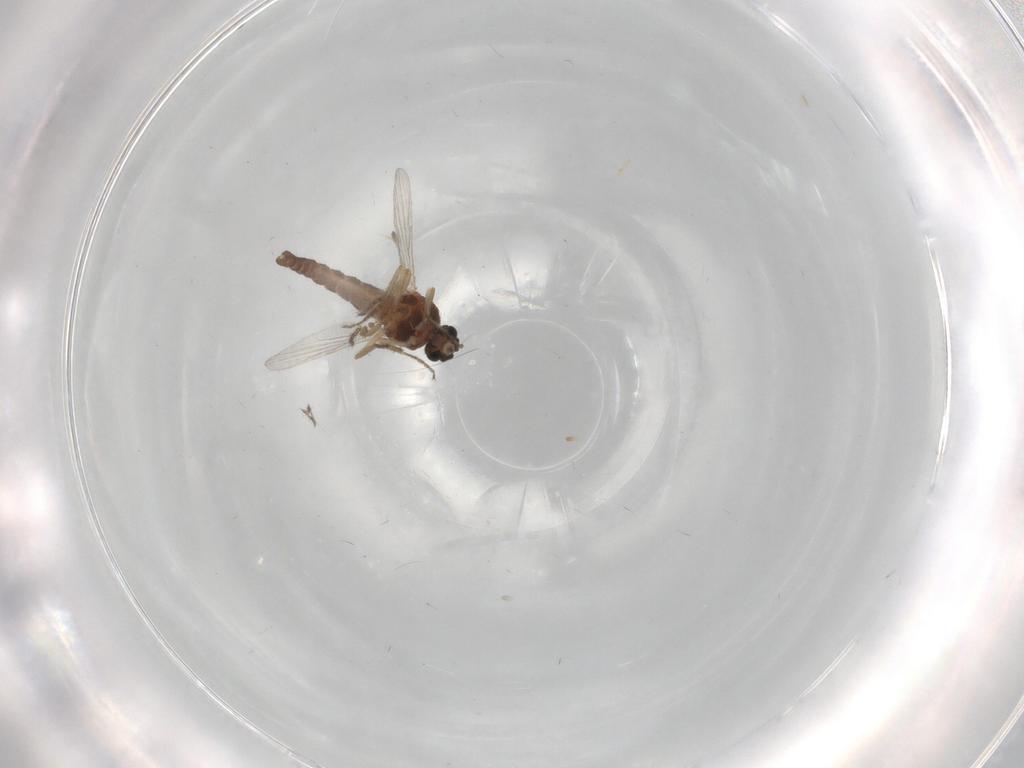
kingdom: Animalia
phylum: Arthropoda
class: Insecta
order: Diptera
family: Ceratopogonidae
